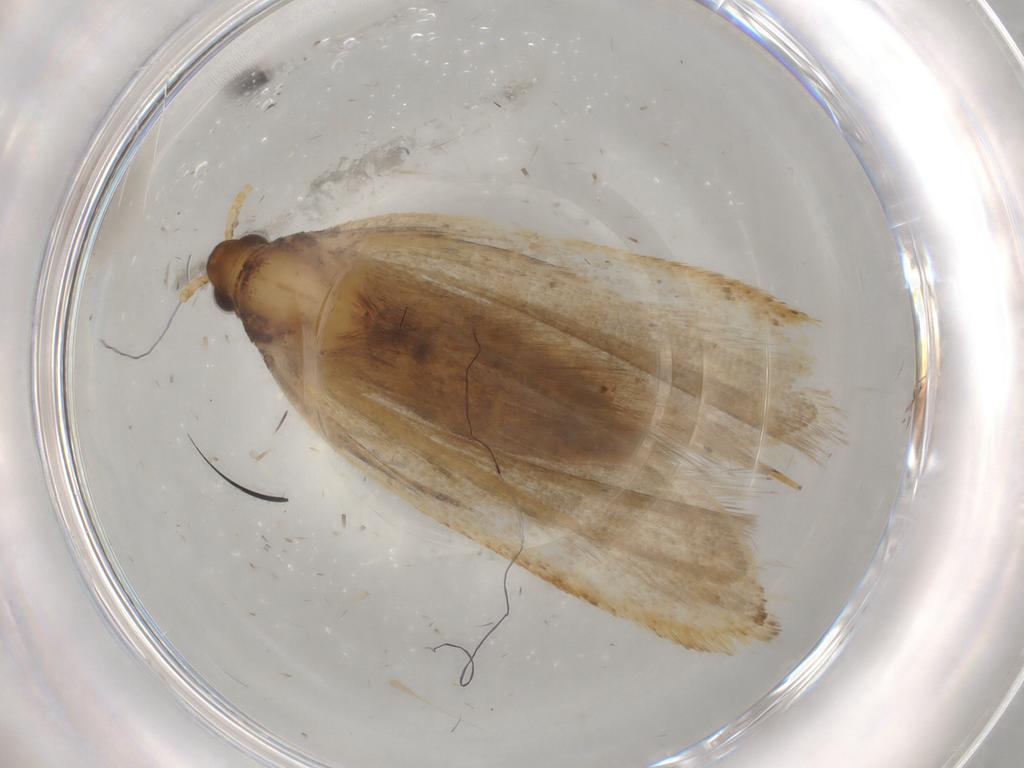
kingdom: Animalia
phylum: Arthropoda
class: Insecta
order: Lepidoptera
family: Lecithoceridae
